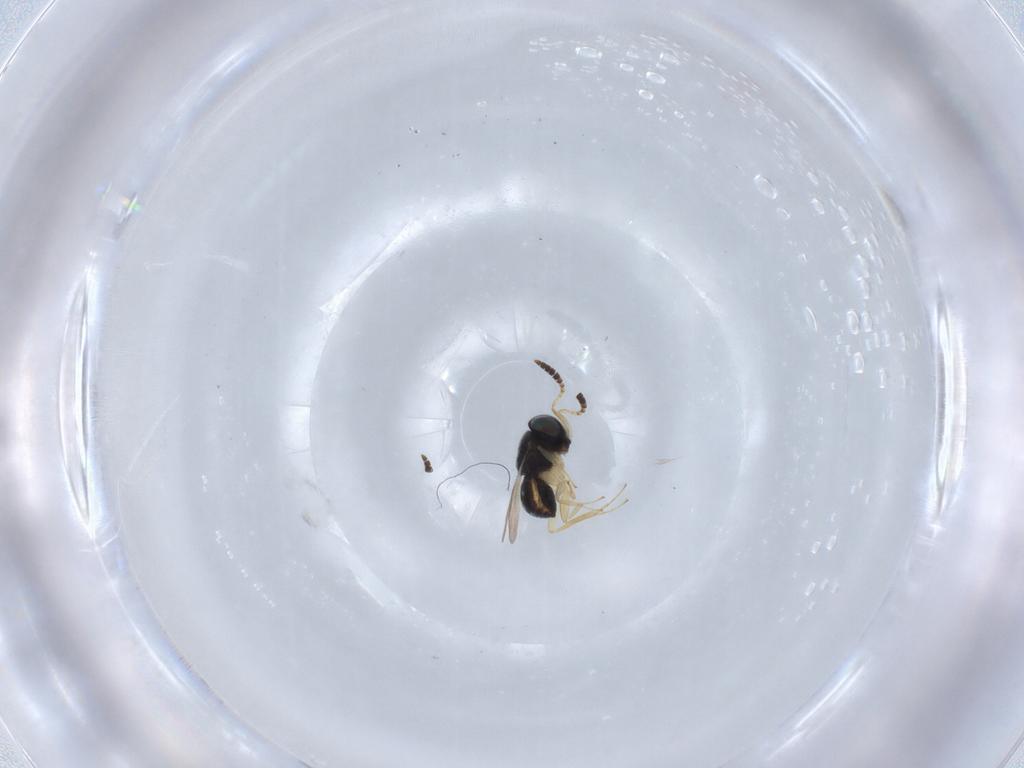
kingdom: Animalia
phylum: Arthropoda
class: Insecta
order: Hymenoptera
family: Scelionidae
